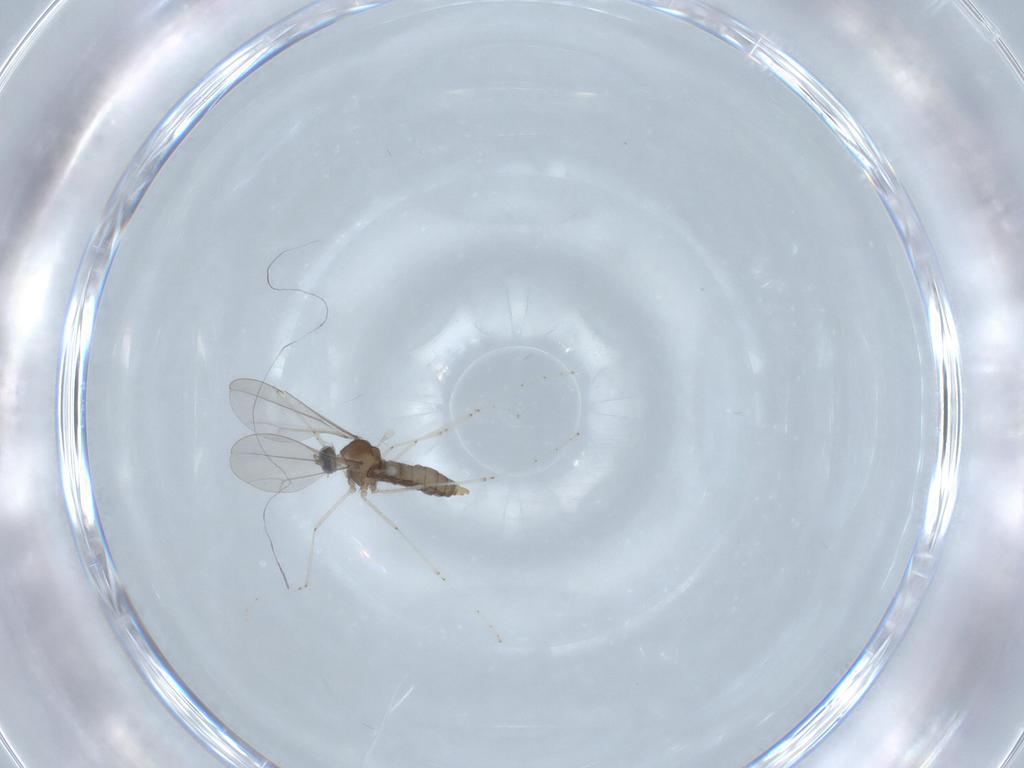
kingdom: Animalia
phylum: Arthropoda
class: Insecta
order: Diptera
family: Cecidomyiidae
